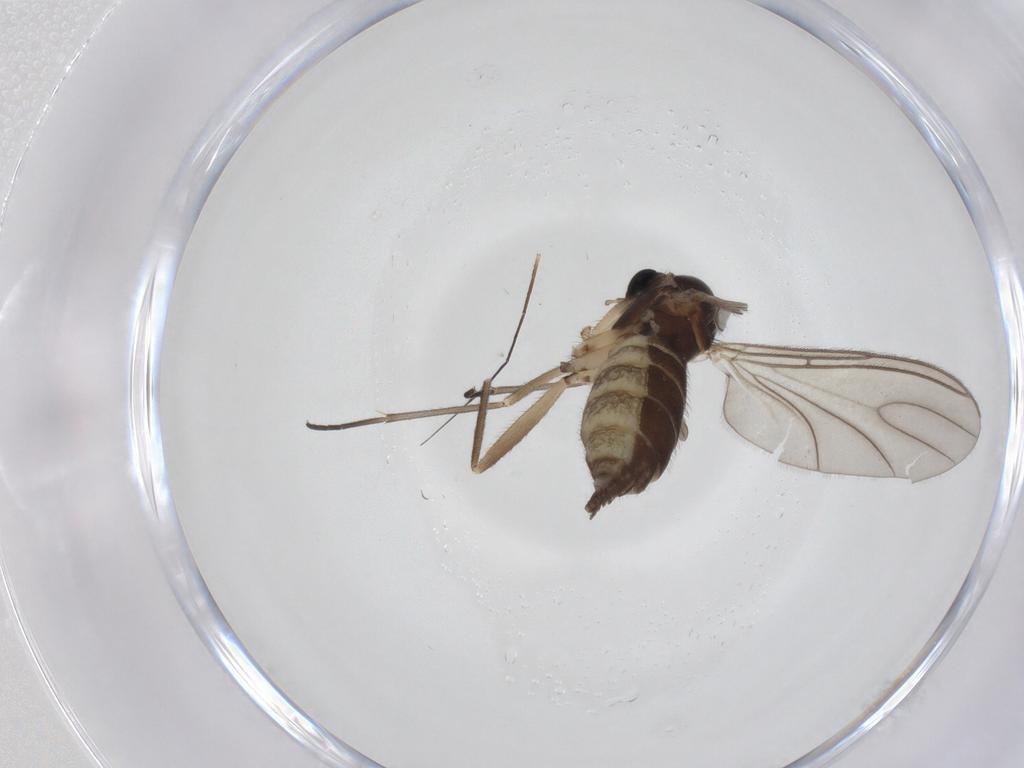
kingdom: Animalia
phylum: Arthropoda
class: Insecta
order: Diptera
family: Sciaridae
